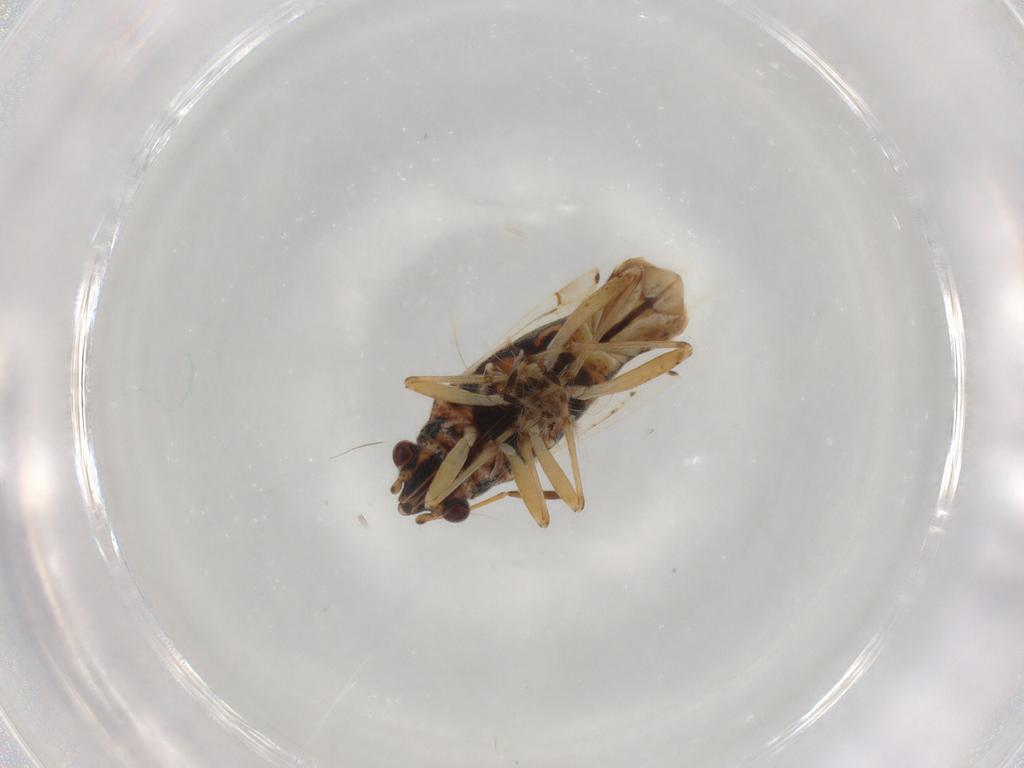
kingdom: Animalia
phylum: Arthropoda
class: Insecta
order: Hemiptera
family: Lygaeidae
